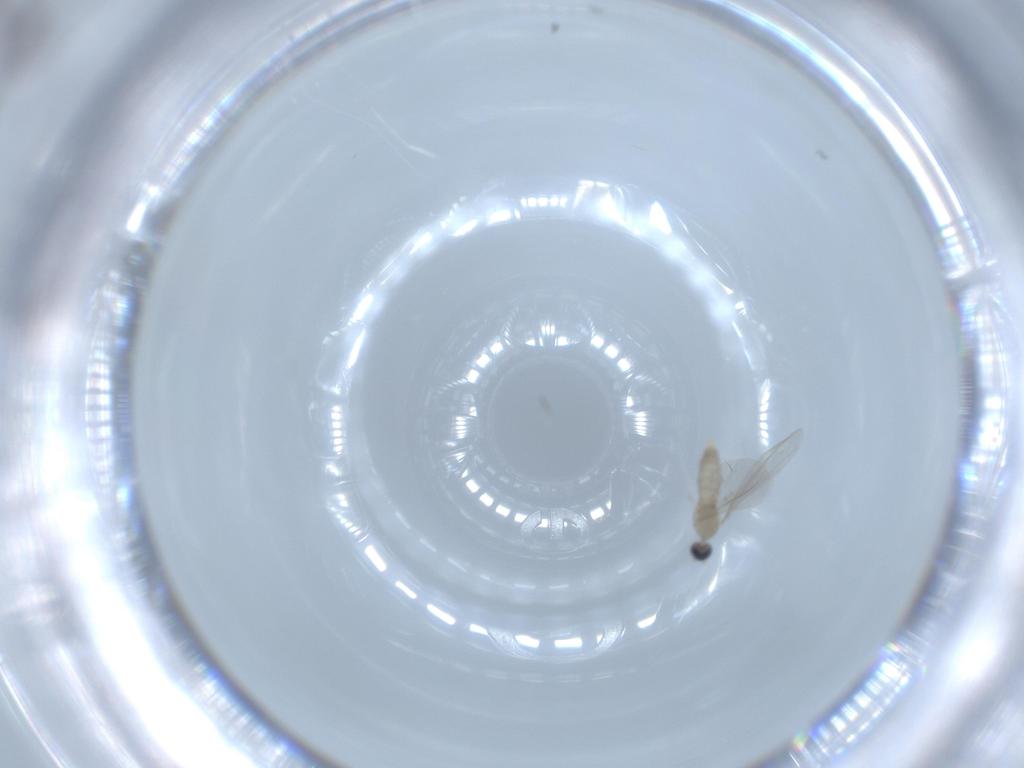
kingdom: Animalia
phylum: Arthropoda
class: Insecta
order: Diptera
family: Cecidomyiidae
